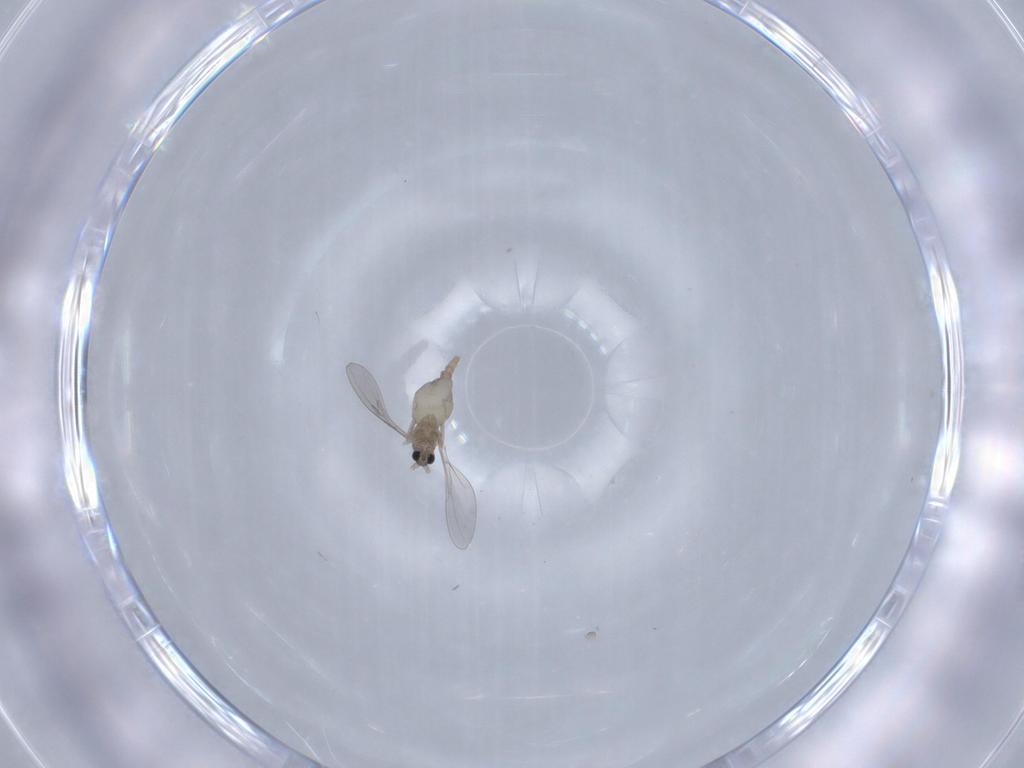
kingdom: Animalia
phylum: Arthropoda
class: Insecta
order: Diptera
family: Cecidomyiidae
